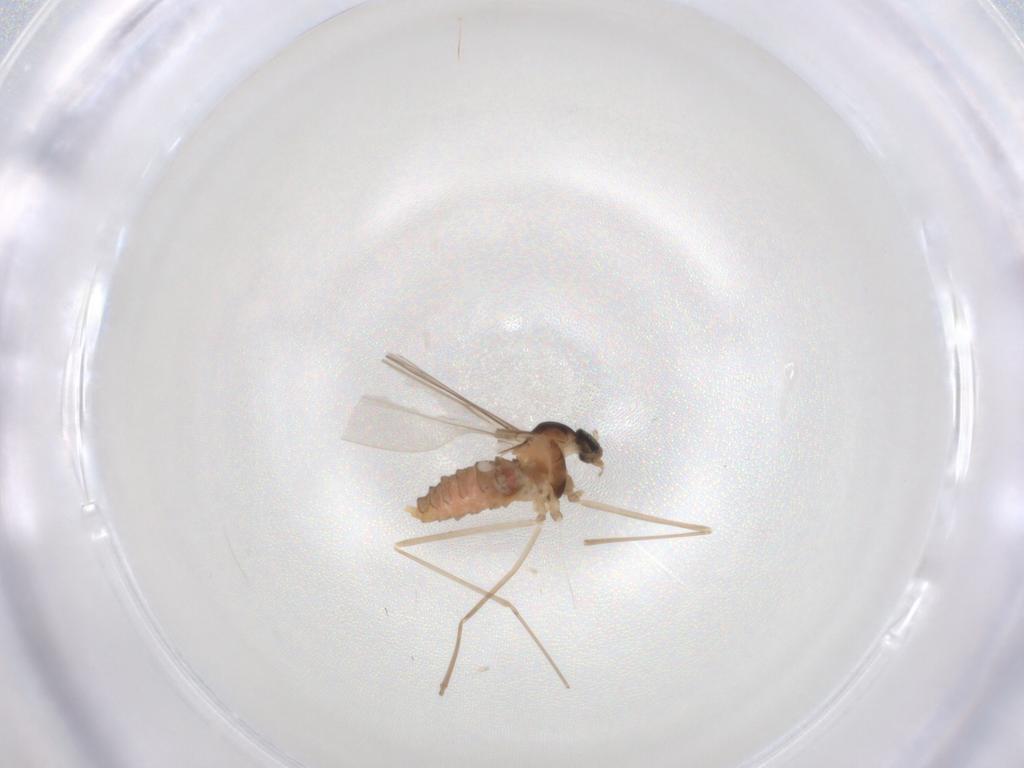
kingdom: Animalia
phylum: Arthropoda
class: Insecta
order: Diptera
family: Cecidomyiidae
